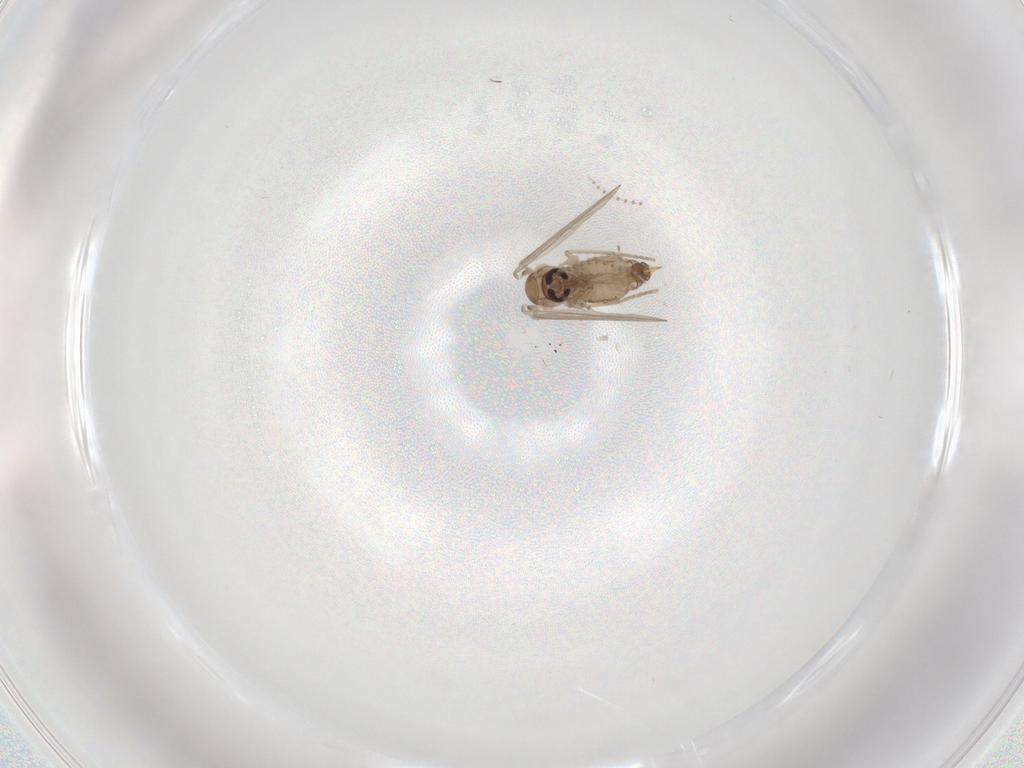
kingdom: Animalia
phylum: Arthropoda
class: Insecta
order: Diptera
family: Psychodidae
